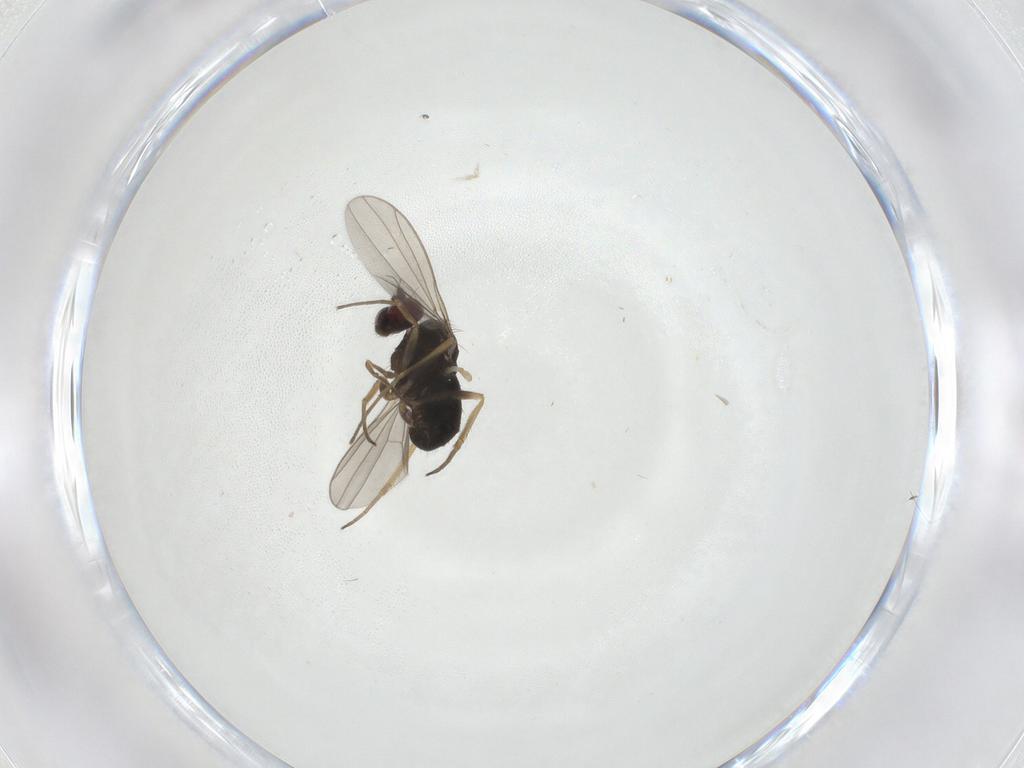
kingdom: Animalia
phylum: Arthropoda
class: Insecta
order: Diptera
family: Dolichopodidae
